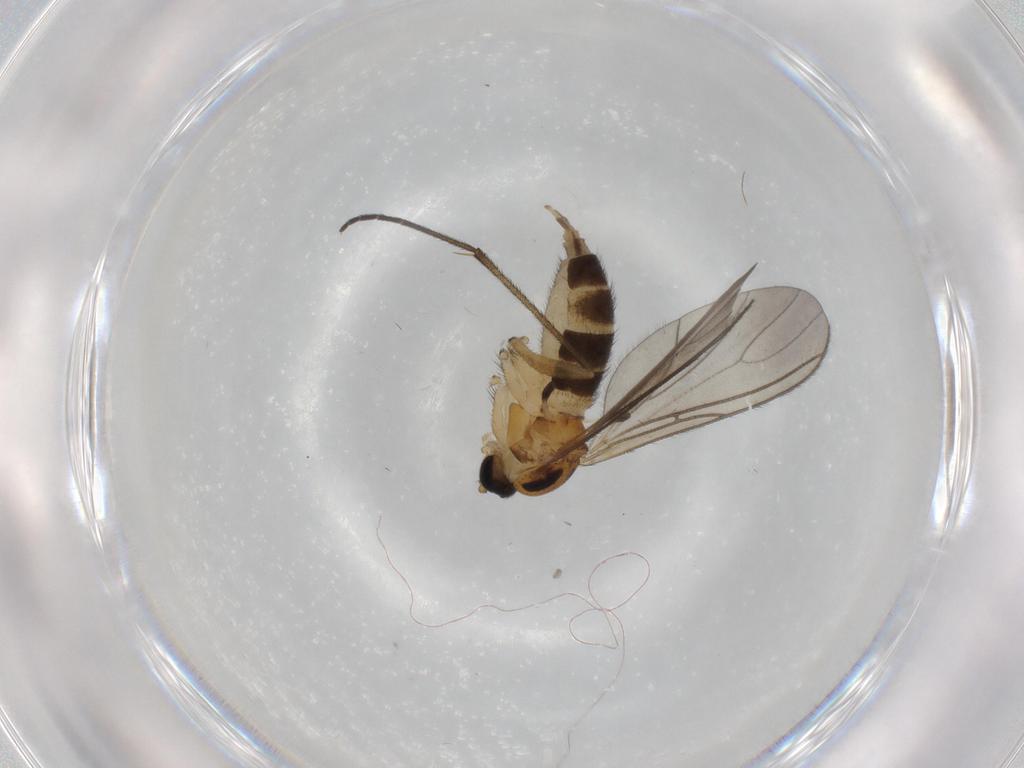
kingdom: Animalia
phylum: Arthropoda
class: Insecta
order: Diptera
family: Sciaridae
